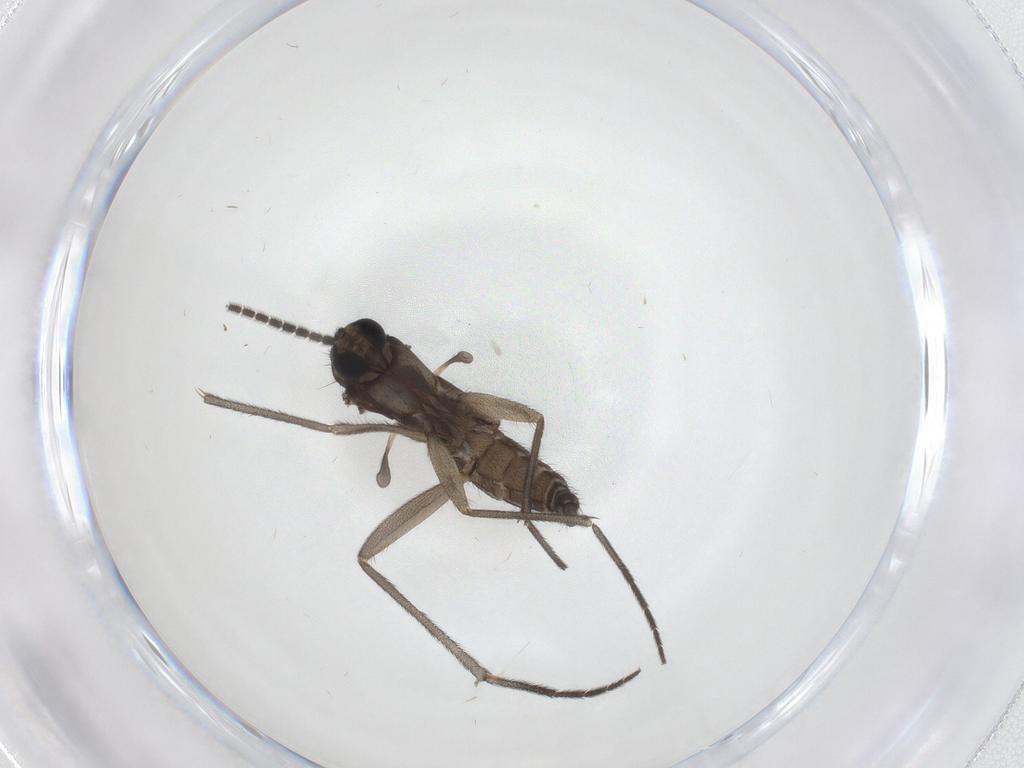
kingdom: Animalia
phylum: Arthropoda
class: Insecta
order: Diptera
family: Sciaridae
